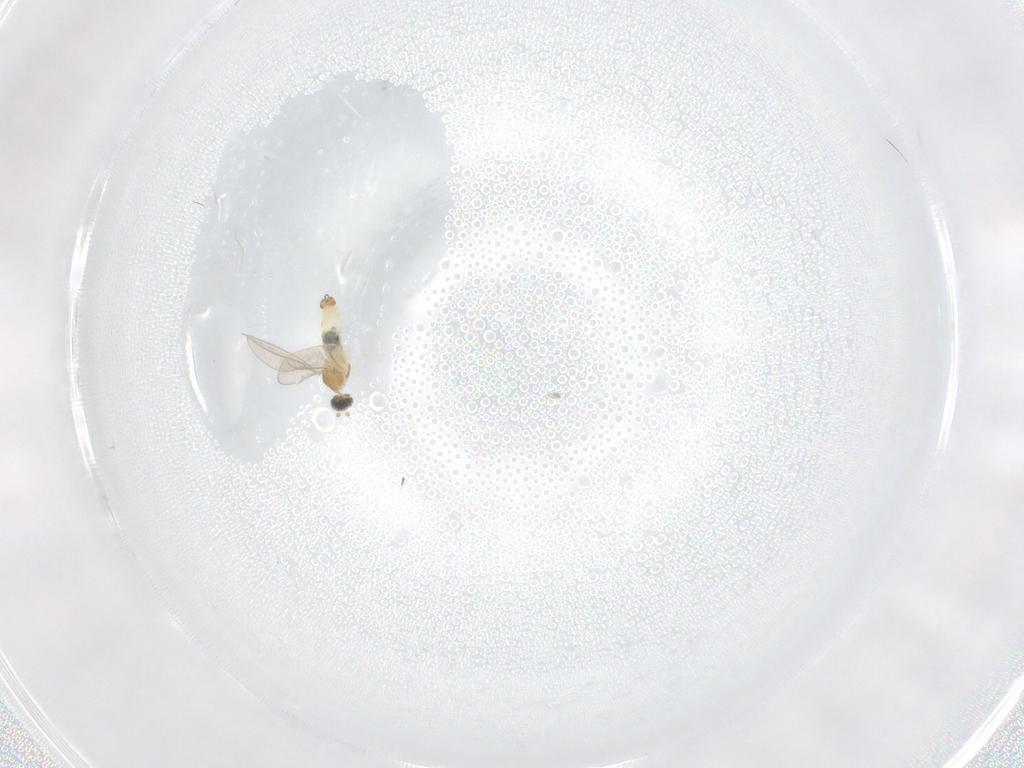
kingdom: Animalia
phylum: Arthropoda
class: Insecta
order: Diptera
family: Cecidomyiidae
